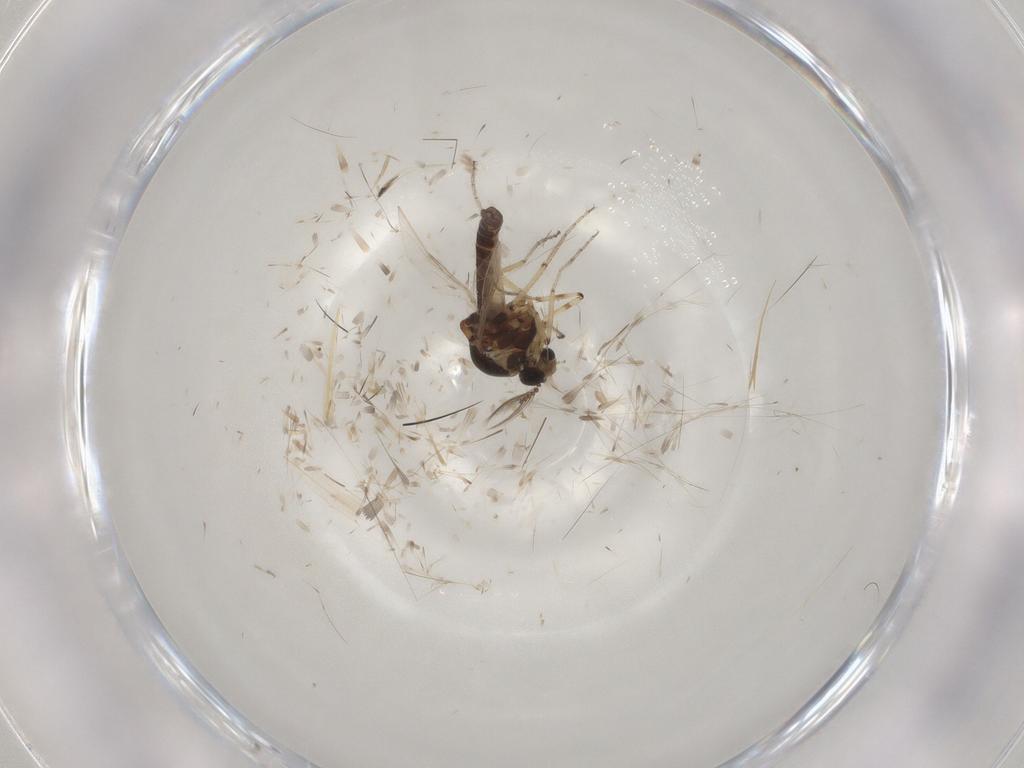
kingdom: Animalia
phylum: Arthropoda
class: Insecta
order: Diptera
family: Ceratopogonidae
